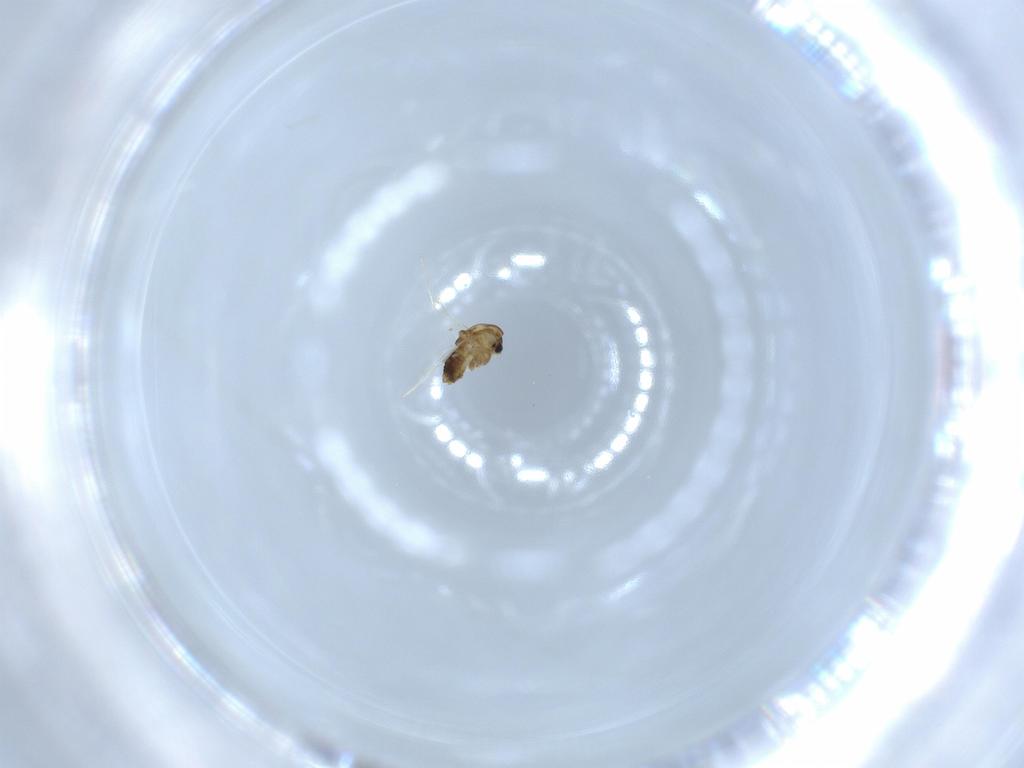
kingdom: Animalia
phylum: Arthropoda
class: Insecta
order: Diptera
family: Chironomidae
